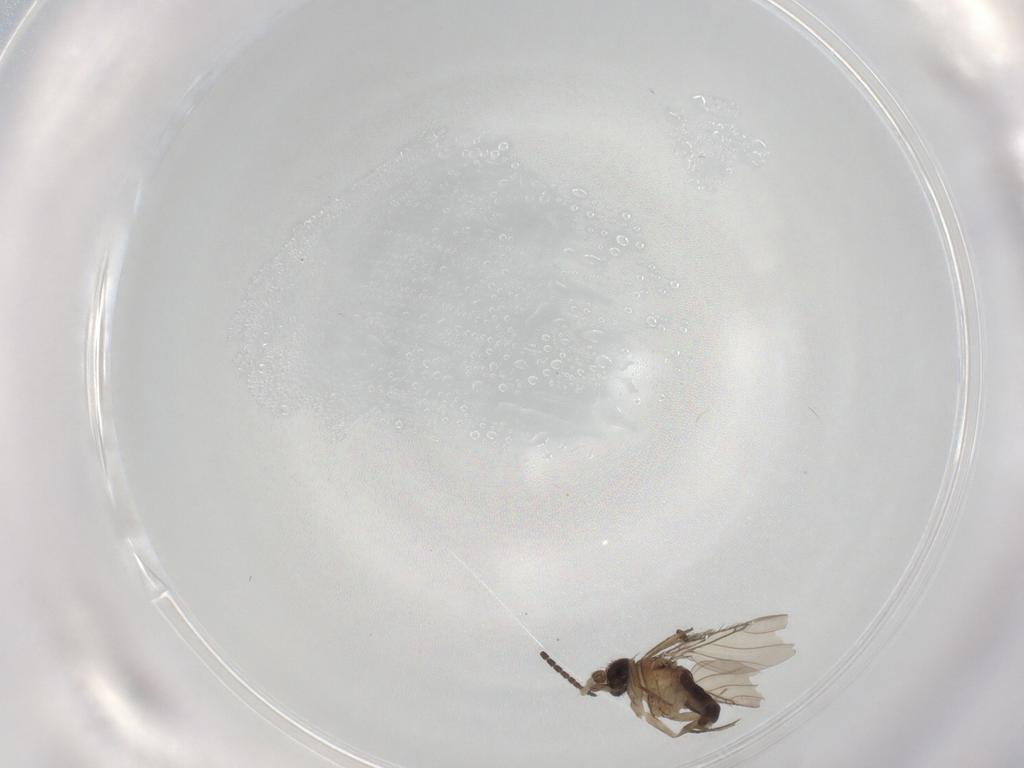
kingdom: Animalia
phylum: Arthropoda
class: Insecta
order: Diptera
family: Phoridae
